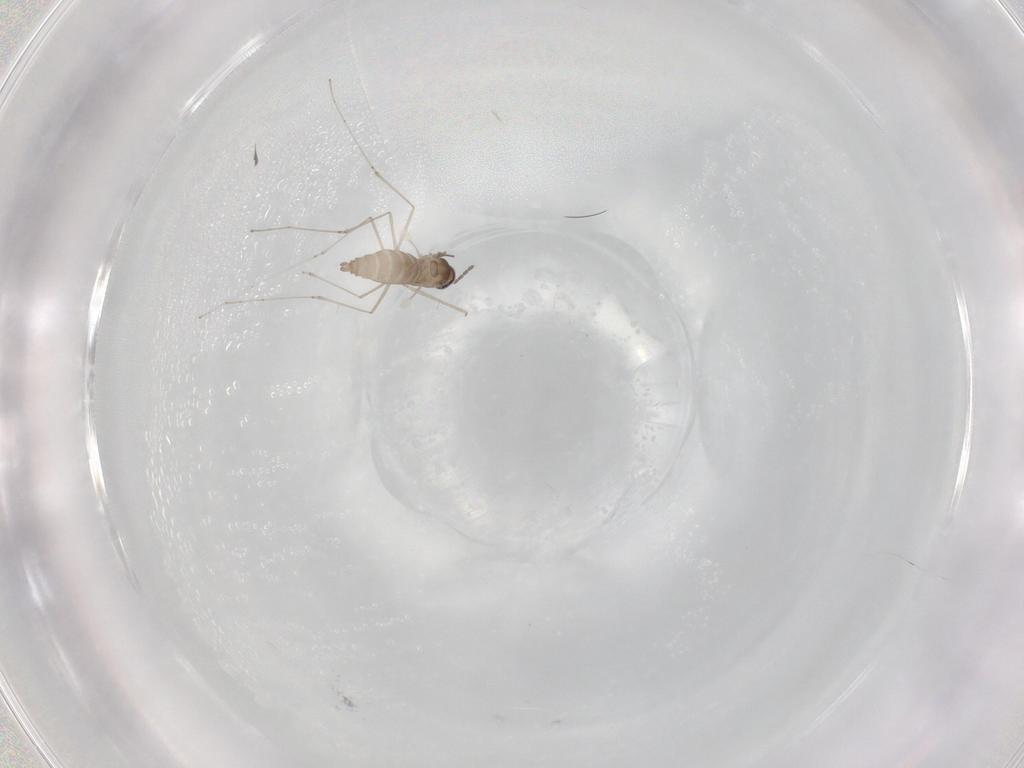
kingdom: Animalia
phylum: Arthropoda
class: Insecta
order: Diptera
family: Cecidomyiidae
